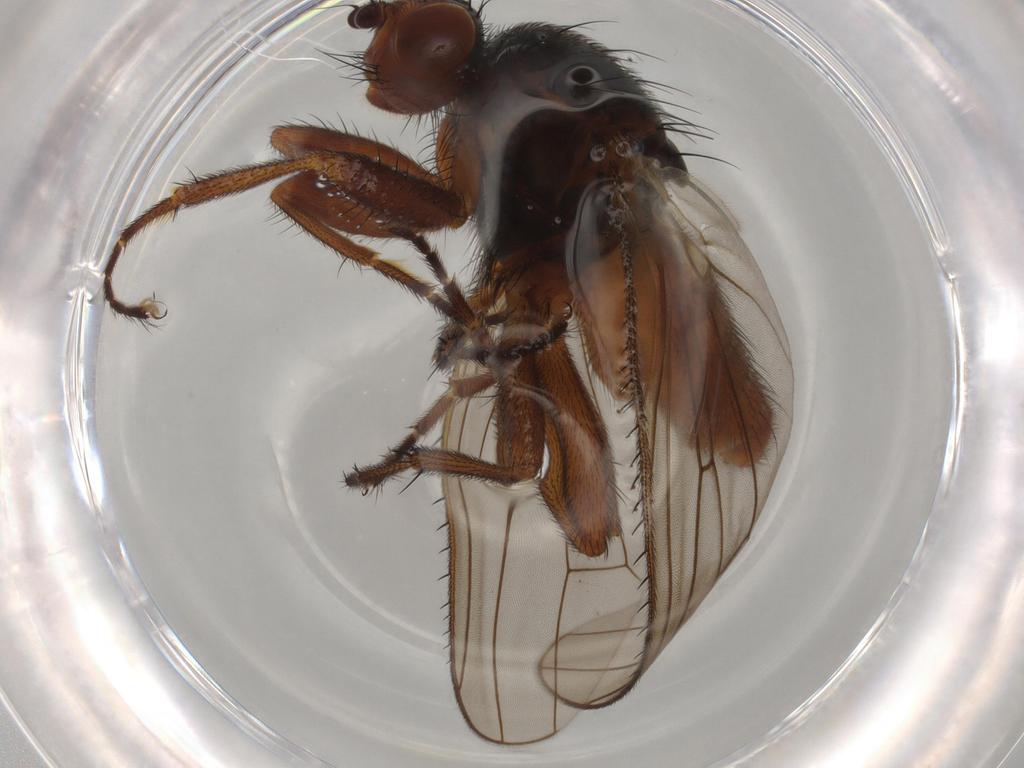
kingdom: Animalia
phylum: Arthropoda
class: Insecta
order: Diptera
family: Heleomyzidae
